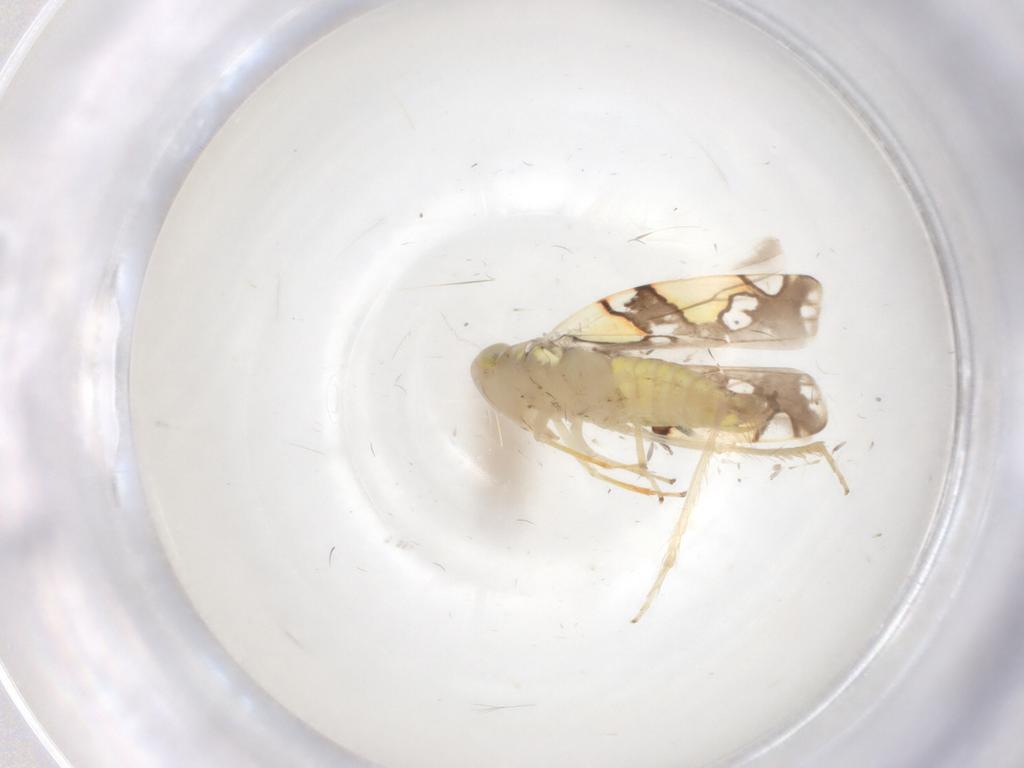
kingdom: Animalia
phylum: Arthropoda
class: Insecta
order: Hemiptera
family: Cicadellidae
